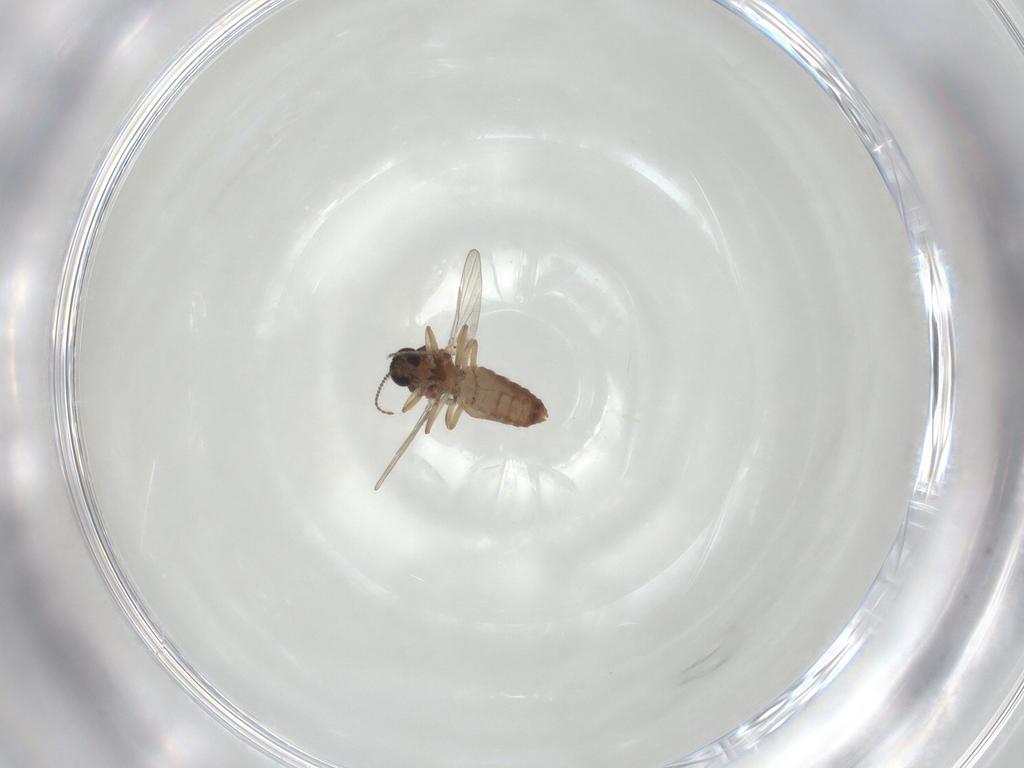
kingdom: Animalia
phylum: Arthropoda
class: Insecta
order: Diptera
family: Ceratopogonidae
